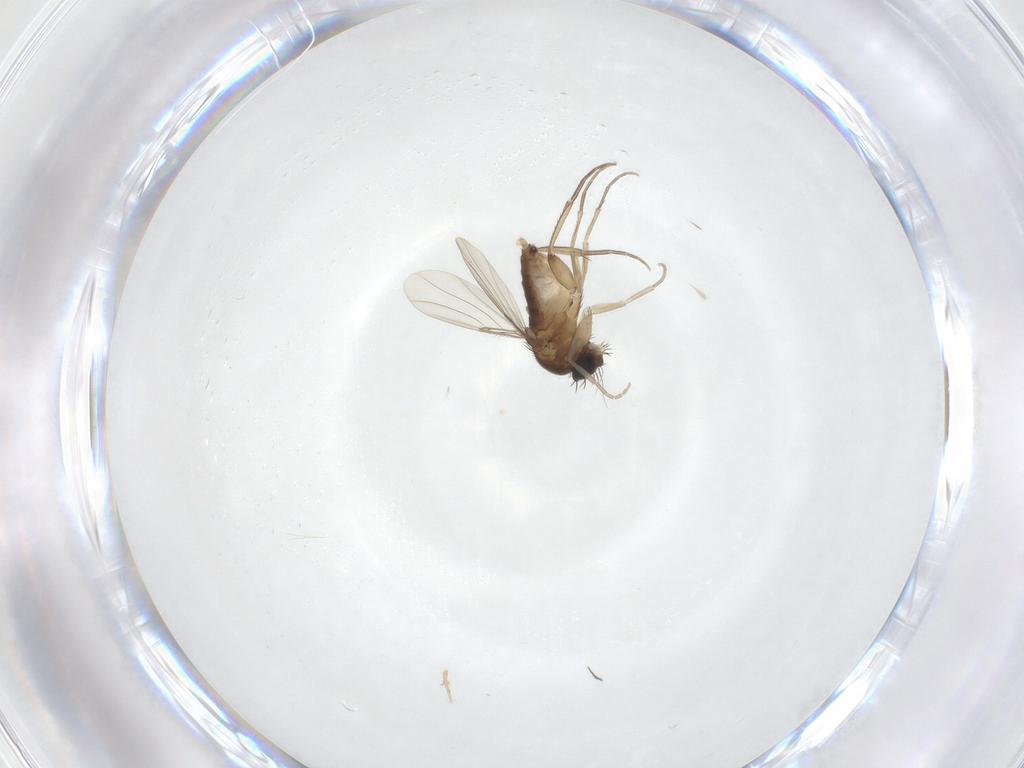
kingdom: Animalia
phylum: Arthropoda
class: Insecta
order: Diptera
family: Phoridae
